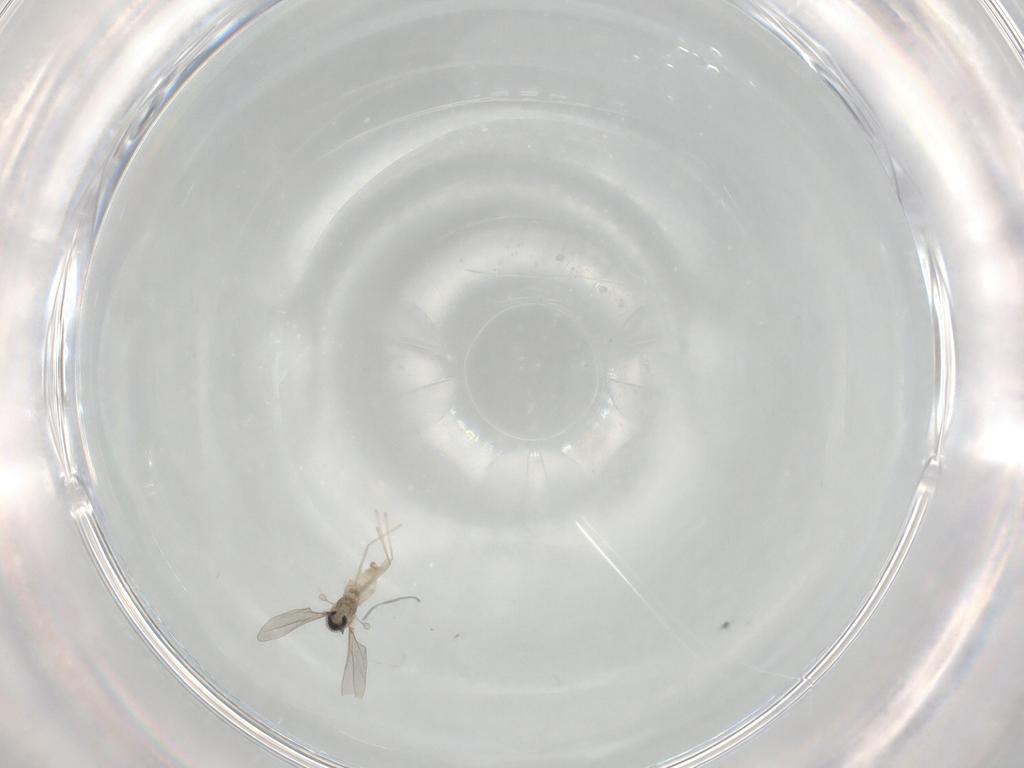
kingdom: Animalia
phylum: Arthropoda
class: Insecta
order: Diptera
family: Cecidomyiidae
